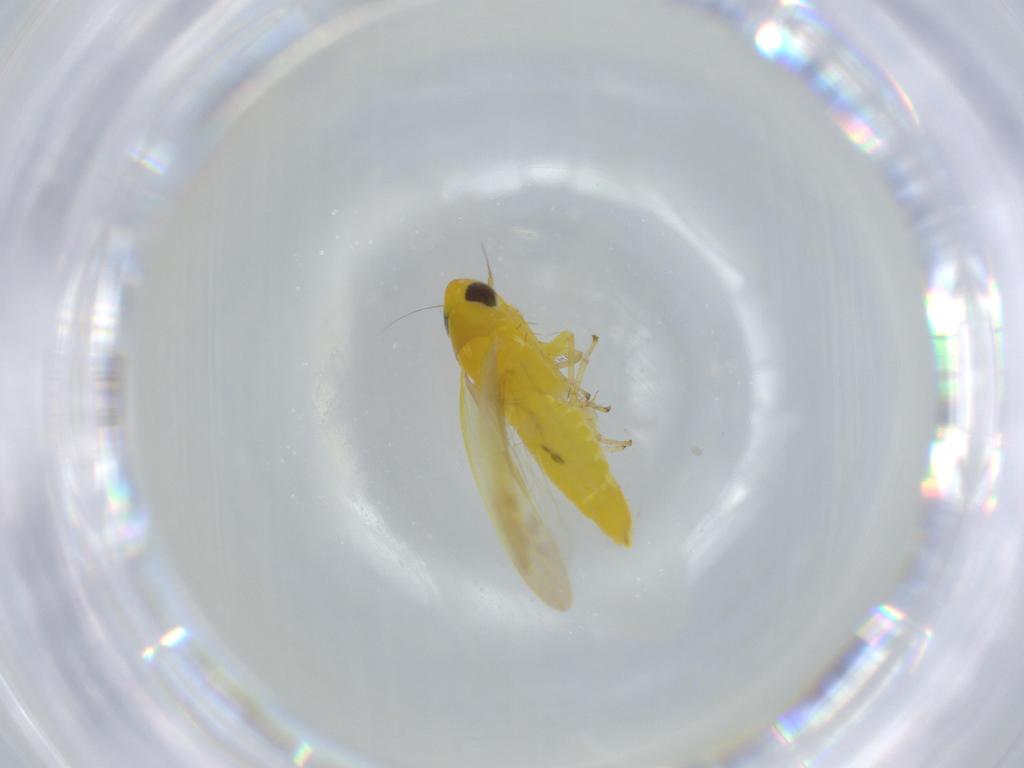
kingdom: Animalia
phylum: Arthropoda
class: Insecta
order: Hemiptera
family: Cicadellidae
